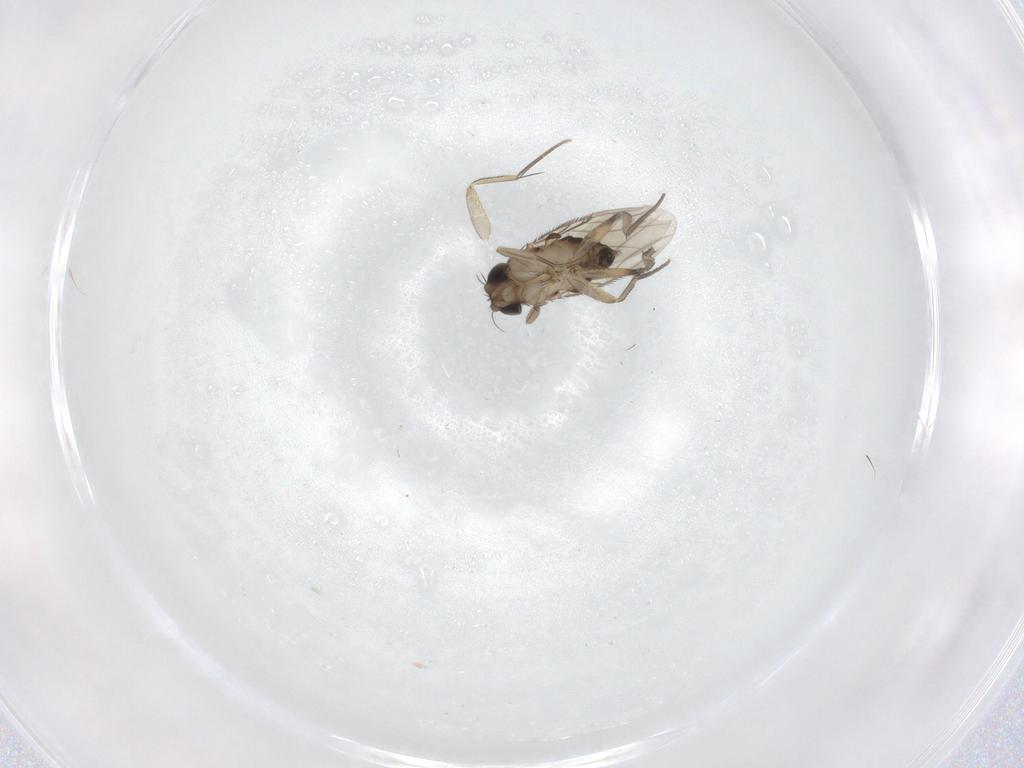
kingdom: Animalia
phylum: Arthropoda
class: Insecta
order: Diptera
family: Phoridae
